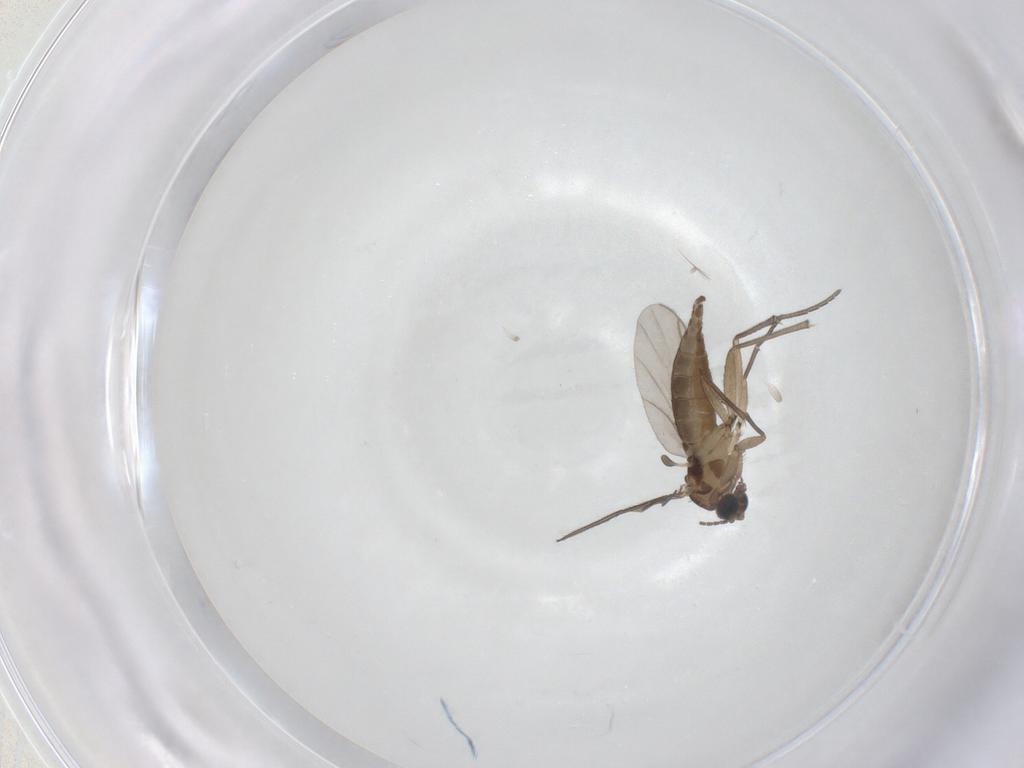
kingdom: Animalia
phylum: Arthropoda
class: Insecta
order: Diptera
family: Sciaridae
